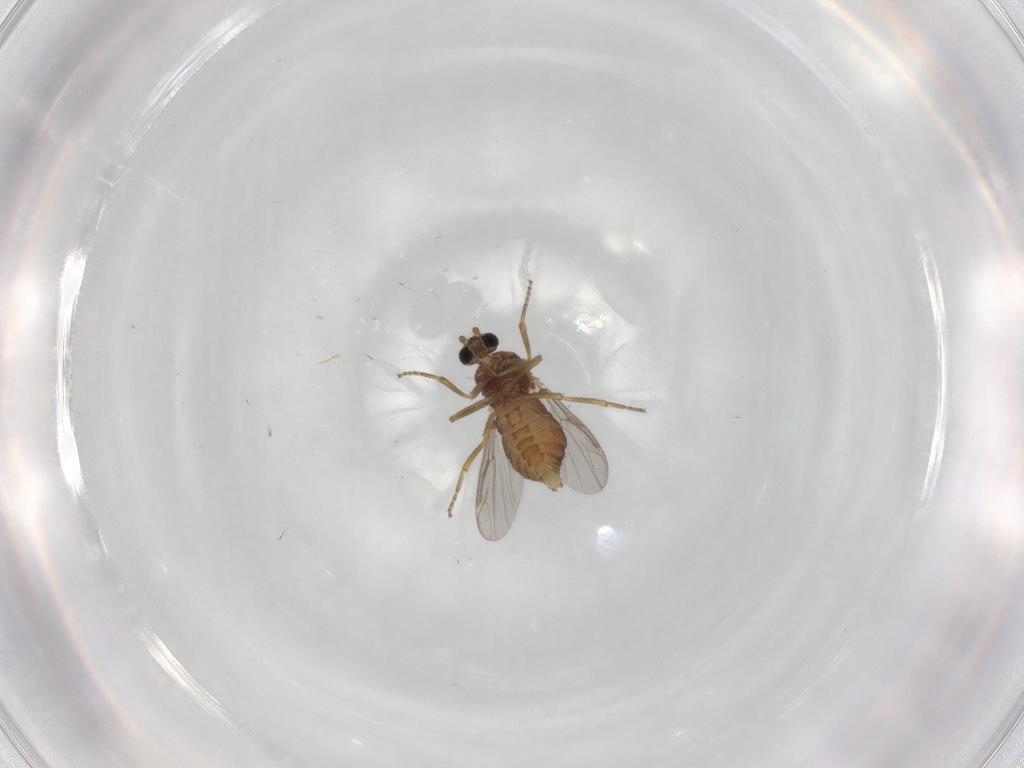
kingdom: Animalia
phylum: Arthropoda
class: Insecta
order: Diptera
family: Ceratopogonidae
